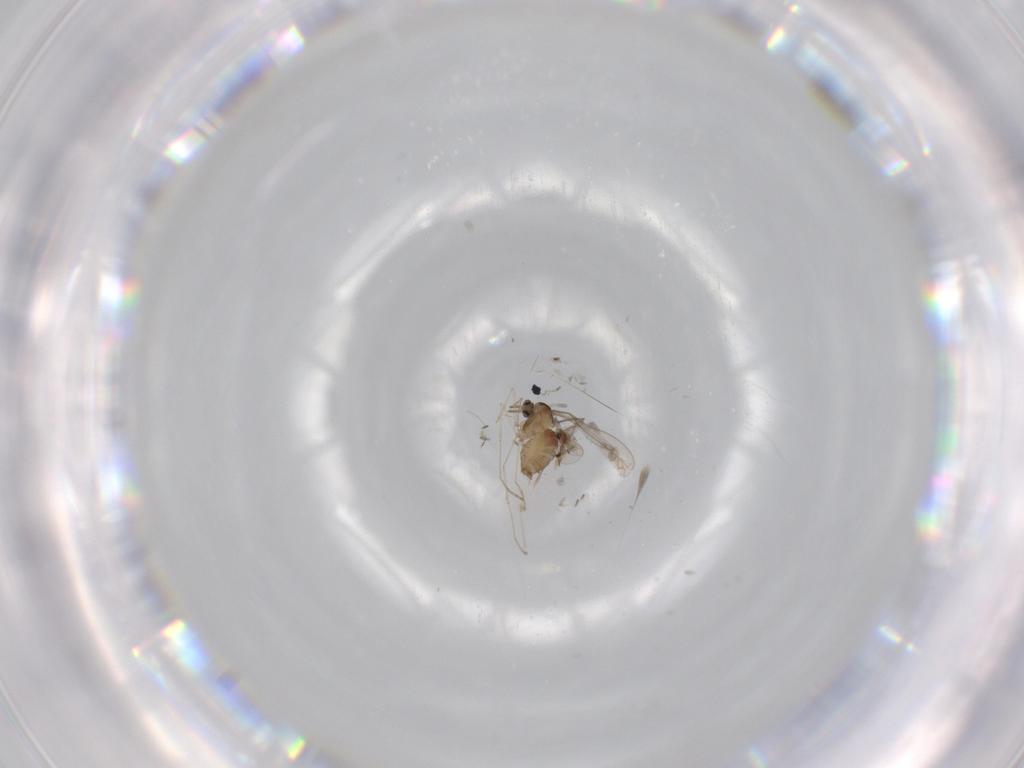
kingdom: Animalia
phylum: Arthropoda
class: Insecta
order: Diptera
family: Cecidomyiidae
